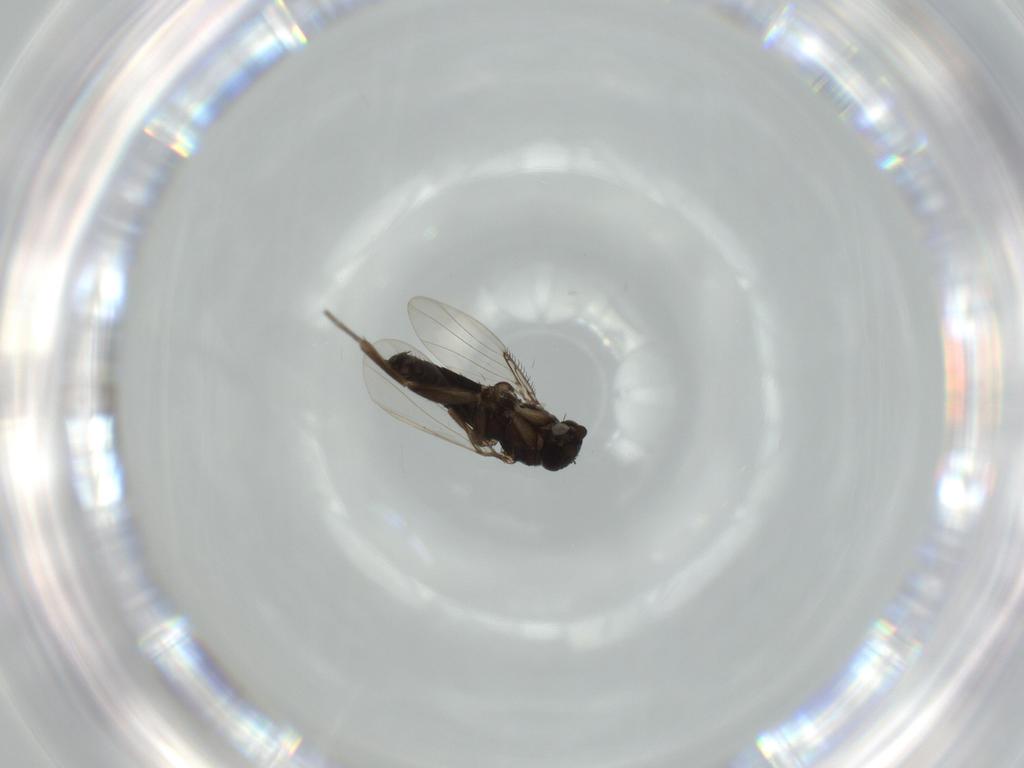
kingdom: Animalia
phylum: Arthropoda
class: Insecta
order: Diptera
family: Phoridae
